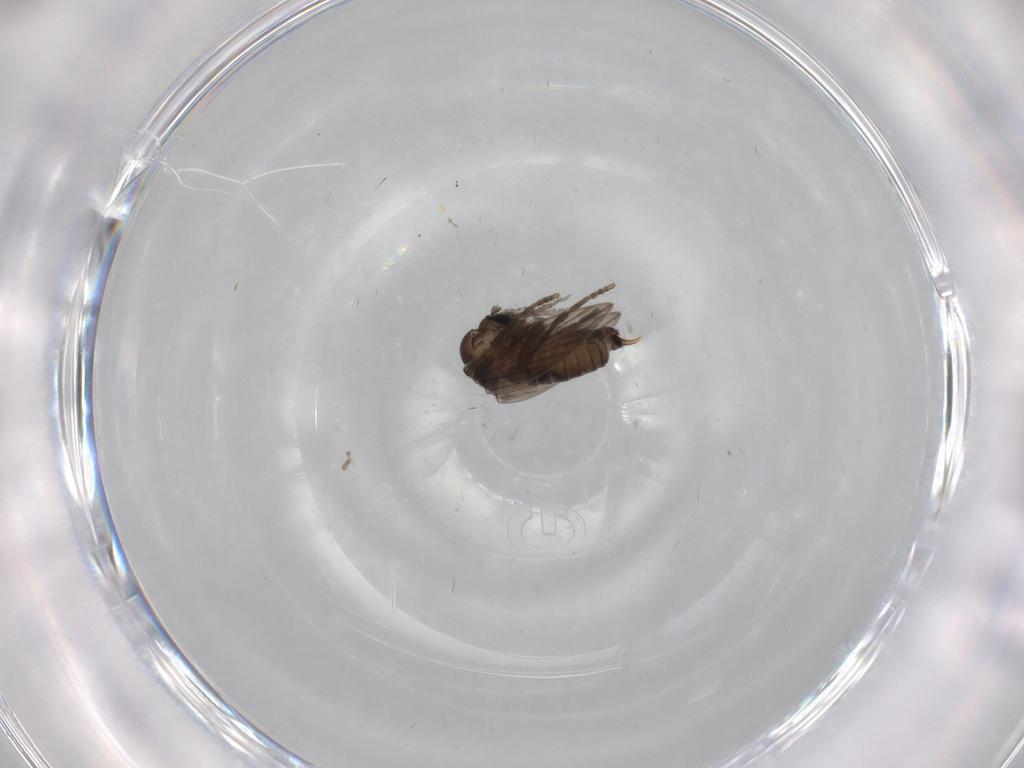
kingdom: Animalia
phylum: Arthropoda
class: Insecta
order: Diptera
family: Psychodidae
